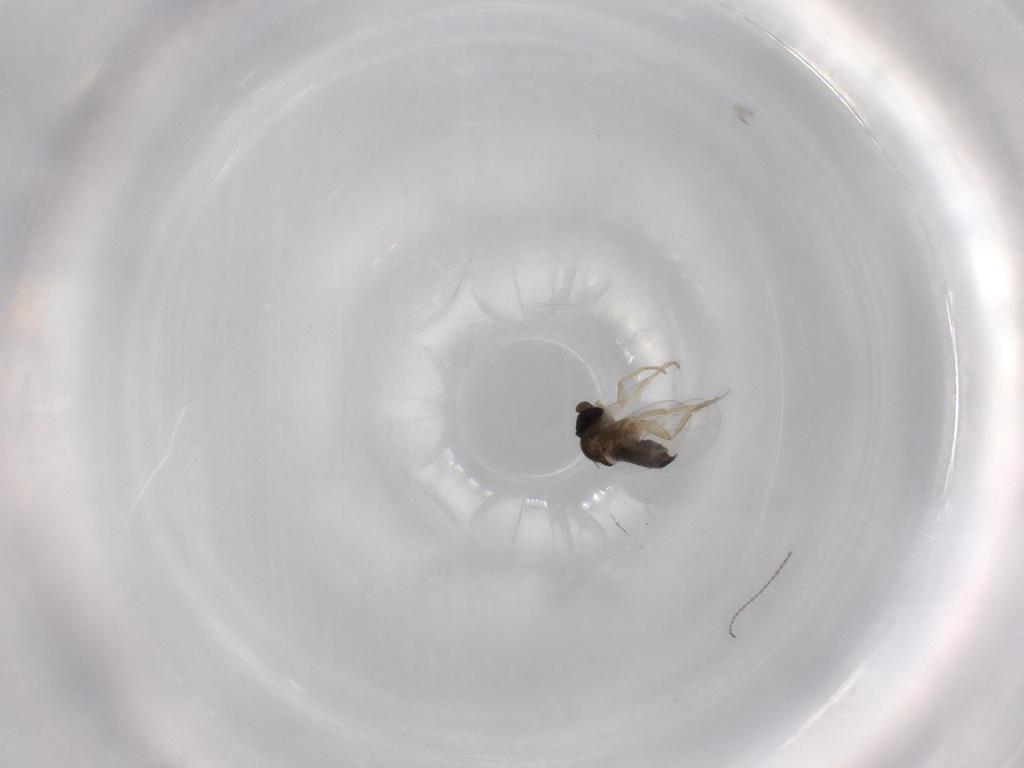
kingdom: Animalia
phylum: Arthropoda
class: Insecta
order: Diptera
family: Phoridae
